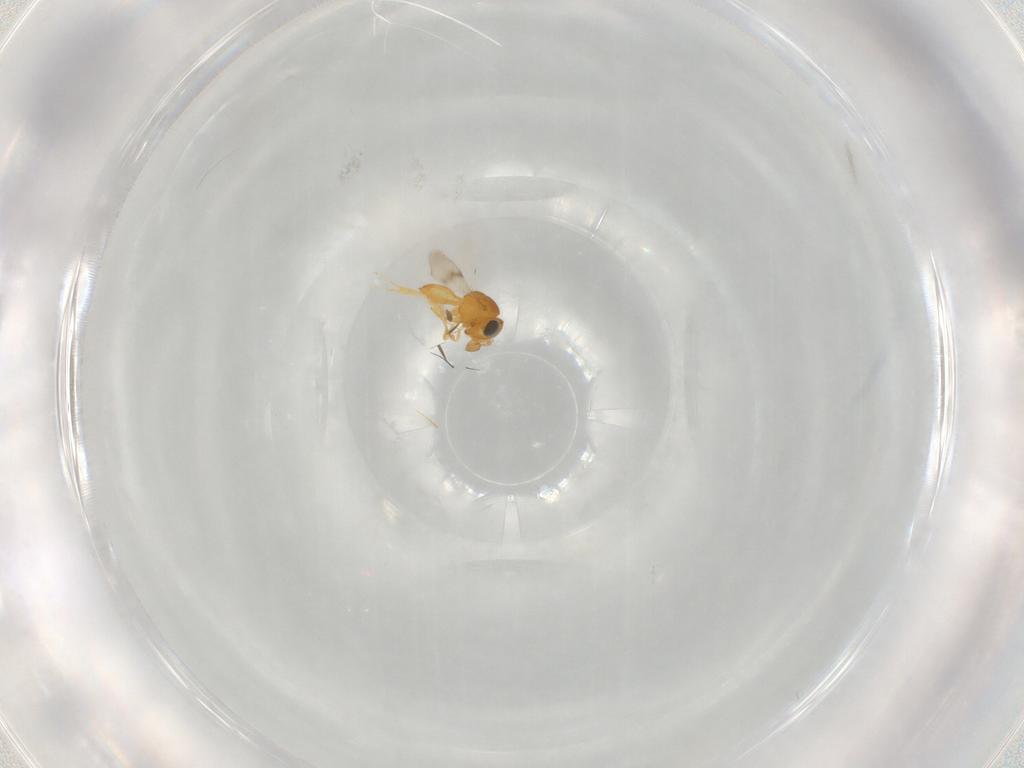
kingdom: Animalia
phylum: Arthropoda
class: Insecta
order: Hymenoptera
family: Scelionidae
